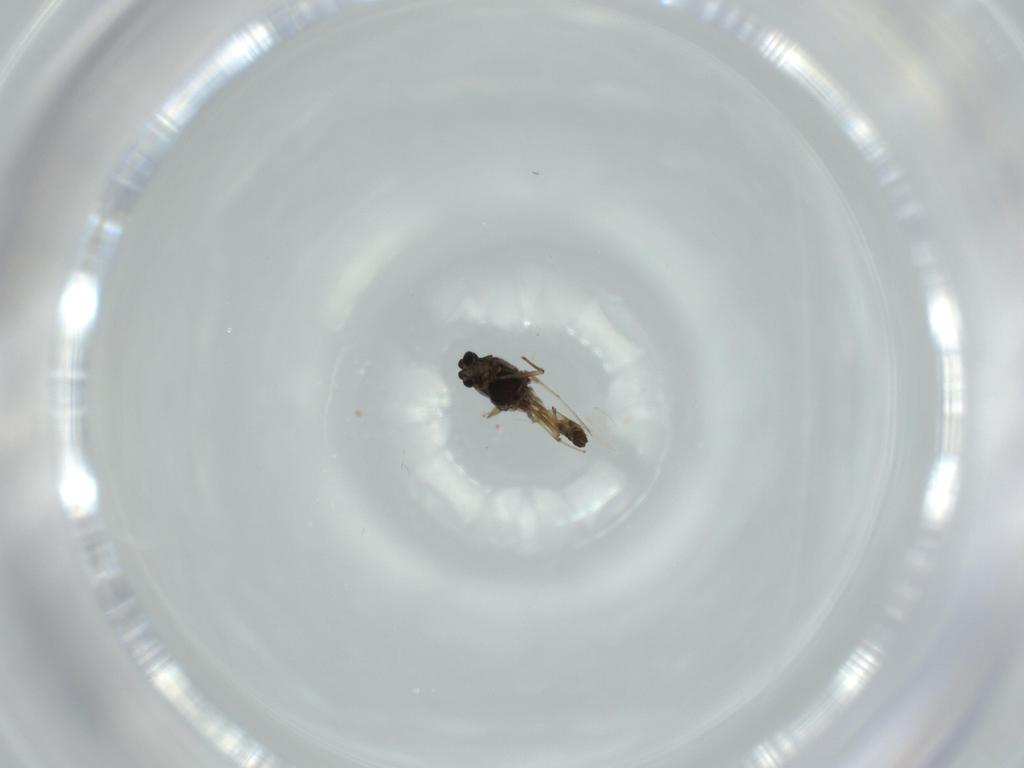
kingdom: Animalia
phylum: Arthropoda
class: Insecta
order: Diptera
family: Chironomidae
